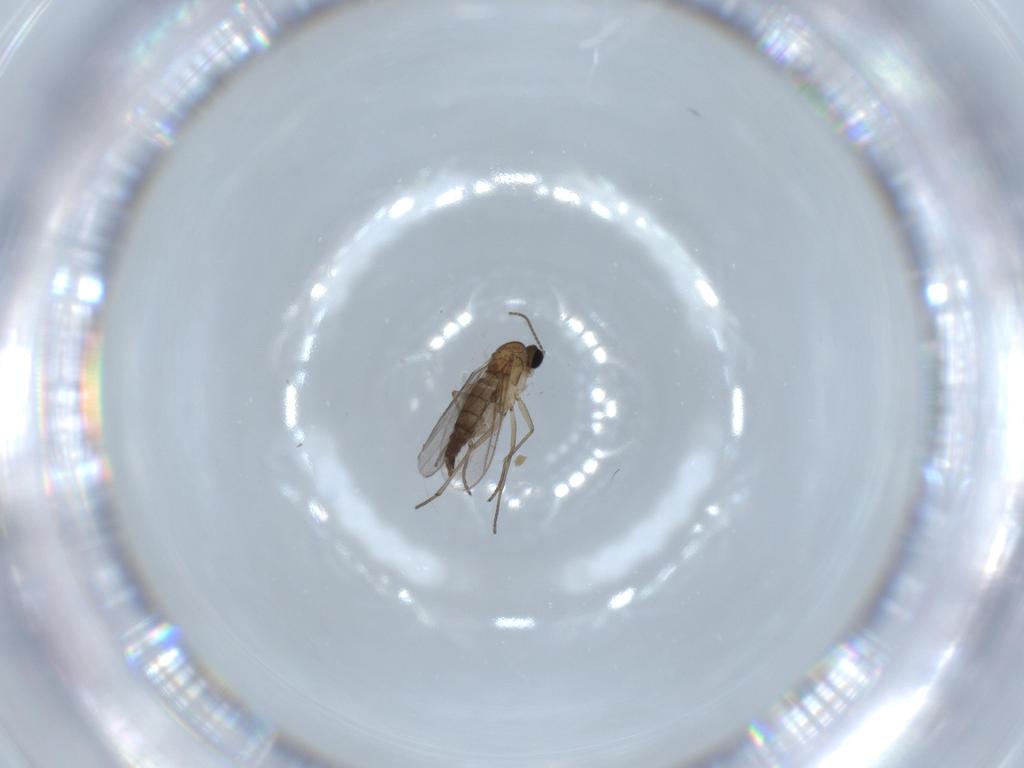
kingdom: Animalia
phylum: Arthropoda
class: Insecta
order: Diptera
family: Sciaridae
